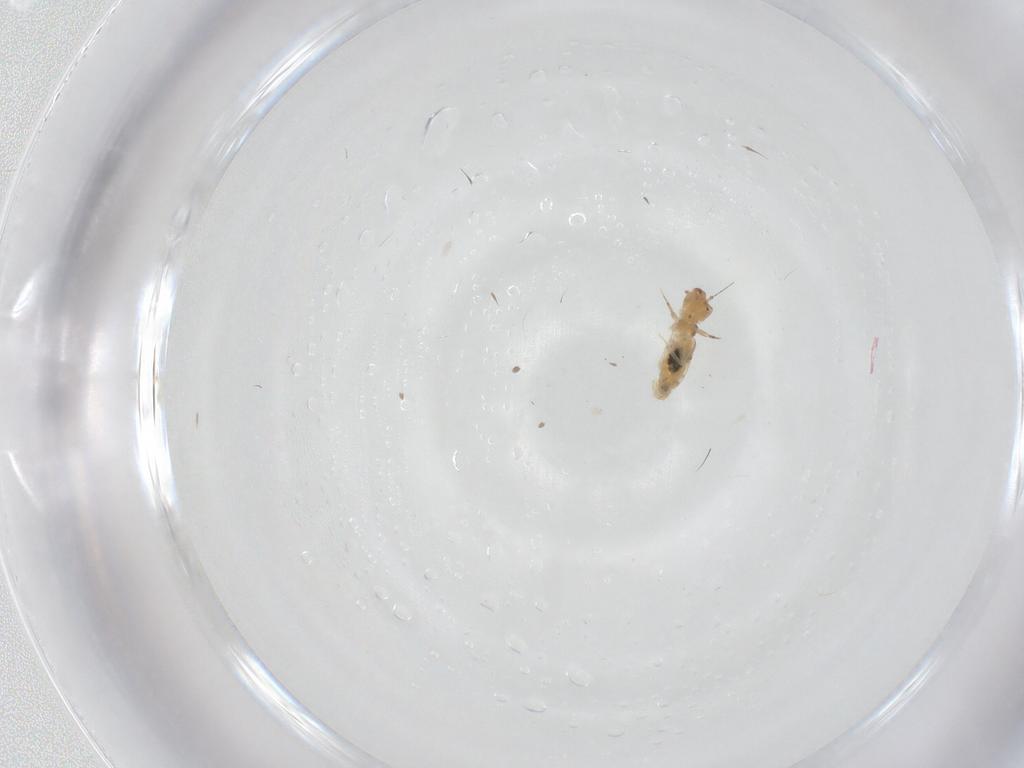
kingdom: Animalia
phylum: Arthropoda
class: Insecta
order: Psocodea
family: Liposcelididae
